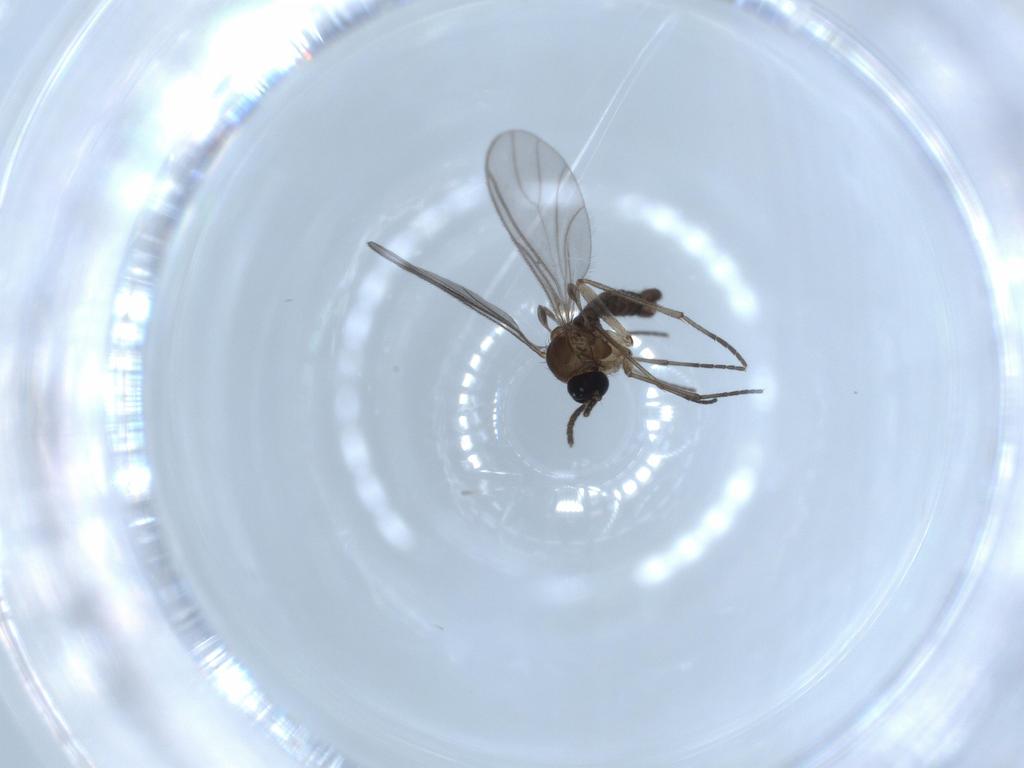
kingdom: Animalia
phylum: Arthropoda
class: Insecta
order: Diptera
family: Sciaridae
